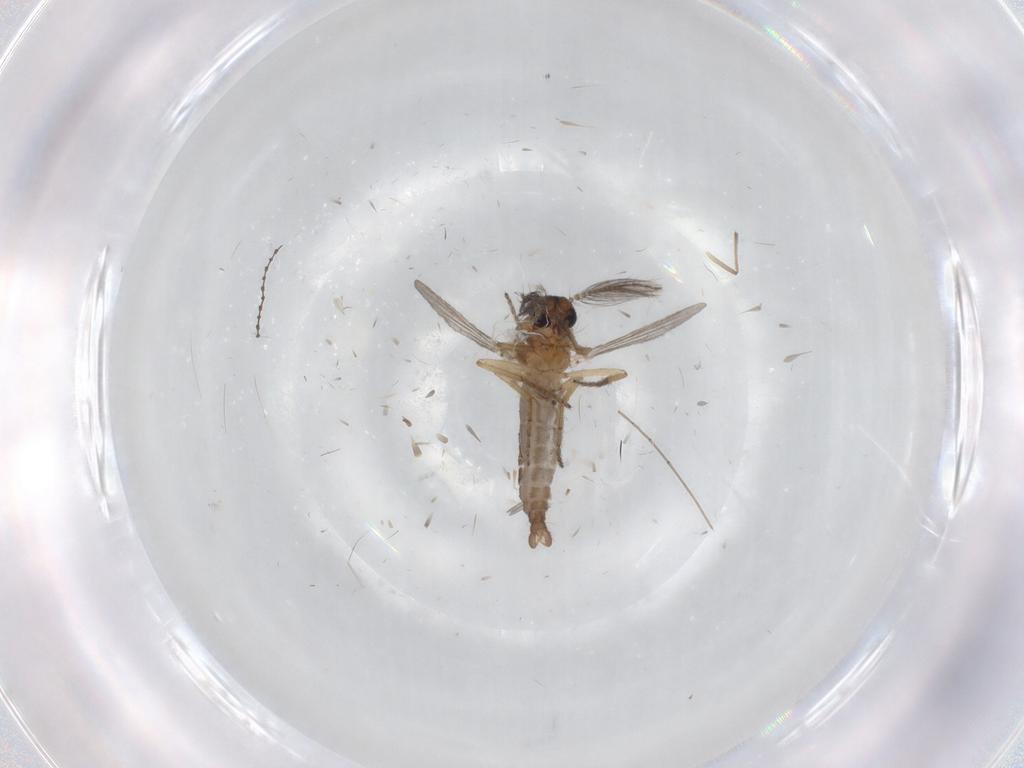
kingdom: Animalia
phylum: Arthropoda
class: Insecta
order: Diptera
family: Ceratopogonidae
